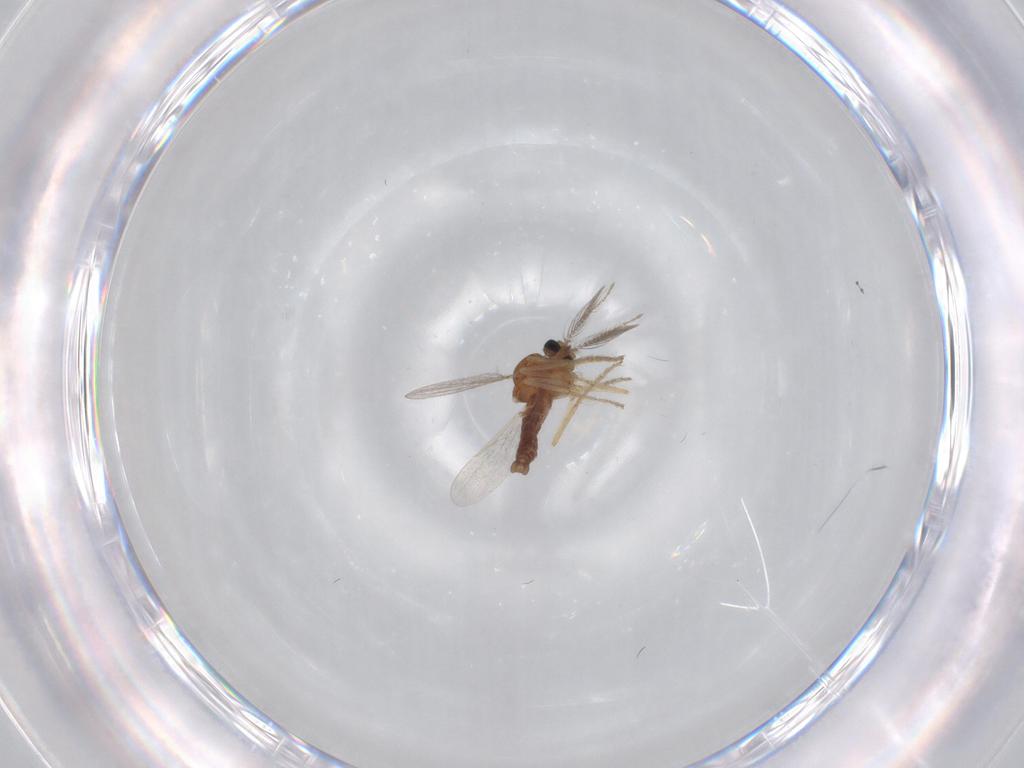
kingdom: Animalia
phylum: Arthropoda
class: Insecta
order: Diptera
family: Ceratopogonidae
